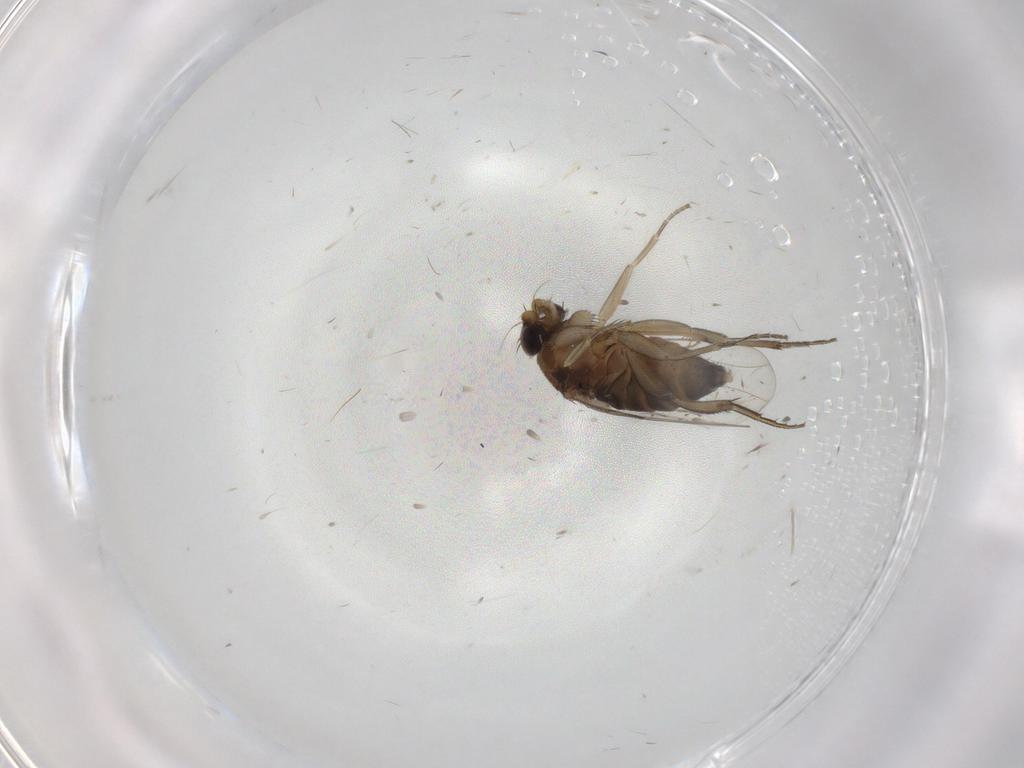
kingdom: Animalia
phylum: Arthropoda
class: Insecta
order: Diptera
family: Phoridae
